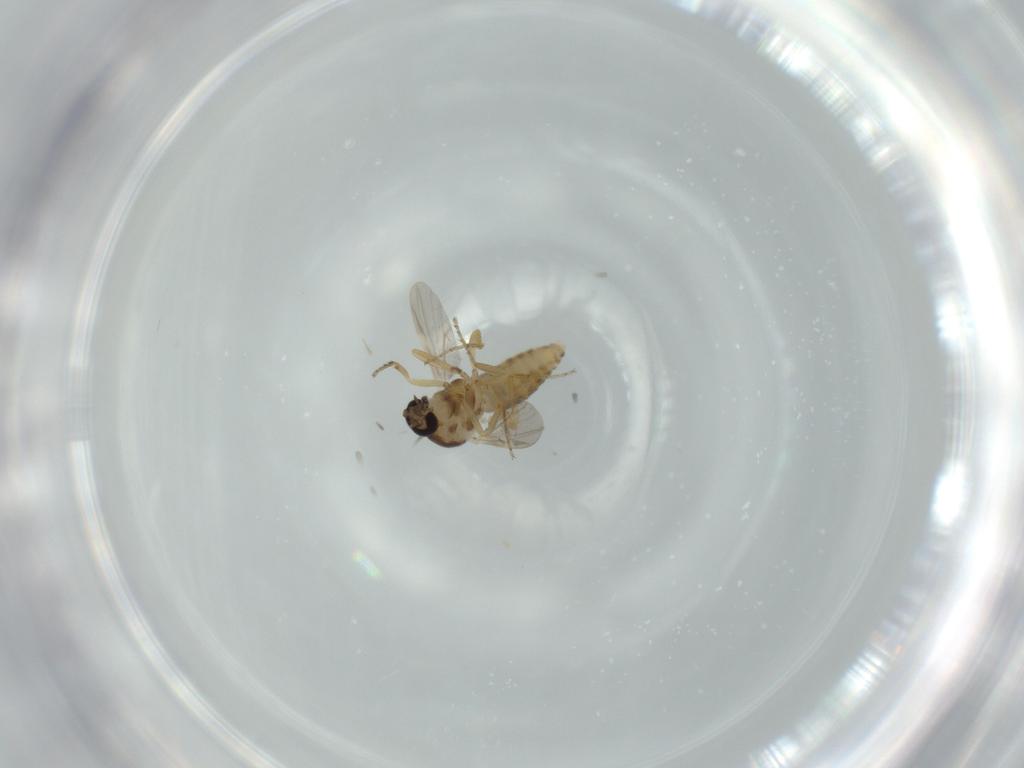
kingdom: Animalia
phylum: Arthropoda
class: Insecta
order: Diptera
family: Ceratopogonidae
